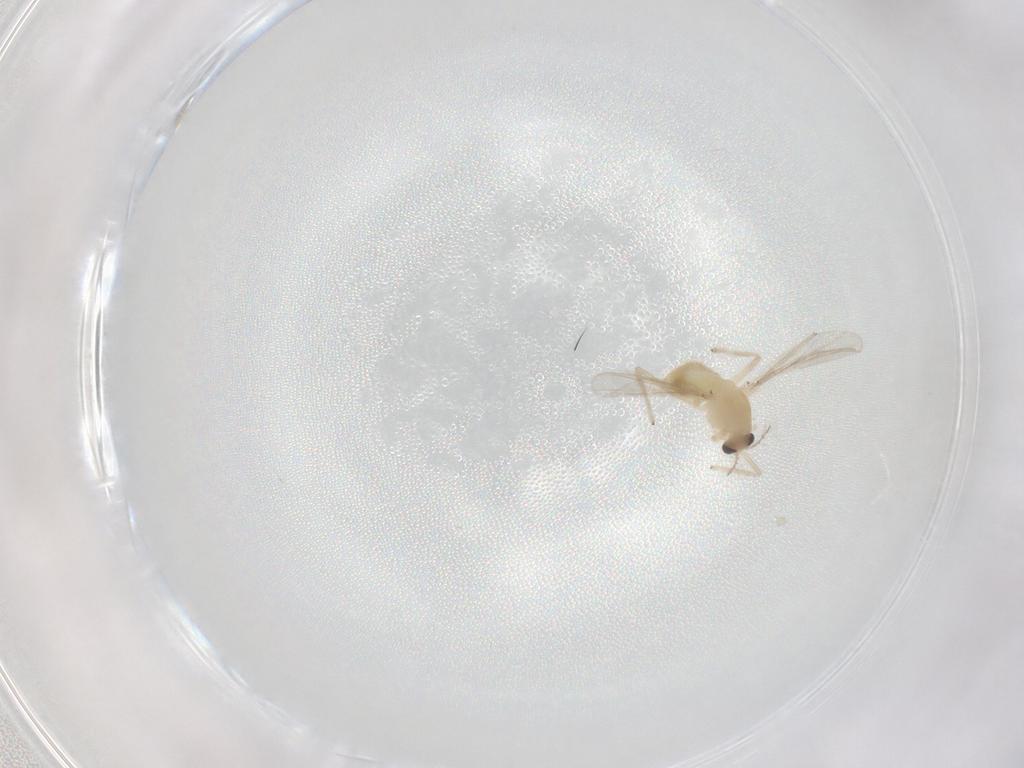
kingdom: Animalia
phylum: Arthropoda
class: Insecta
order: Diptera
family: Chironomidae
